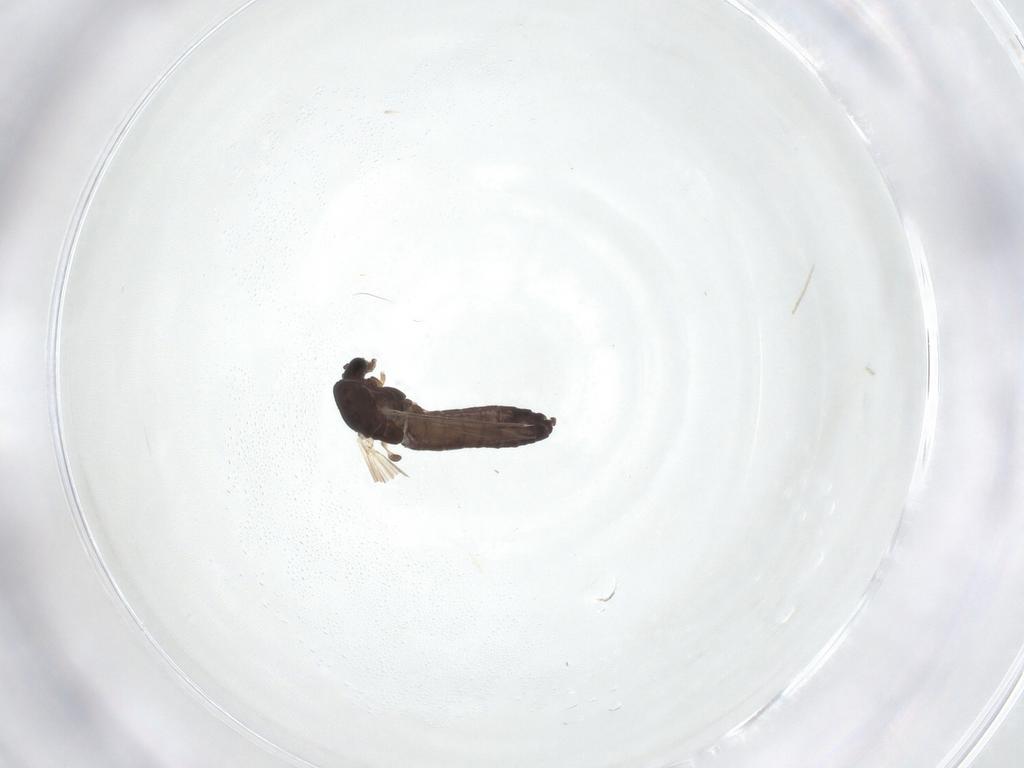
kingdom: Animalia
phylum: Arthropoda
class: Insecta
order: Diptera
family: Chironomidae
